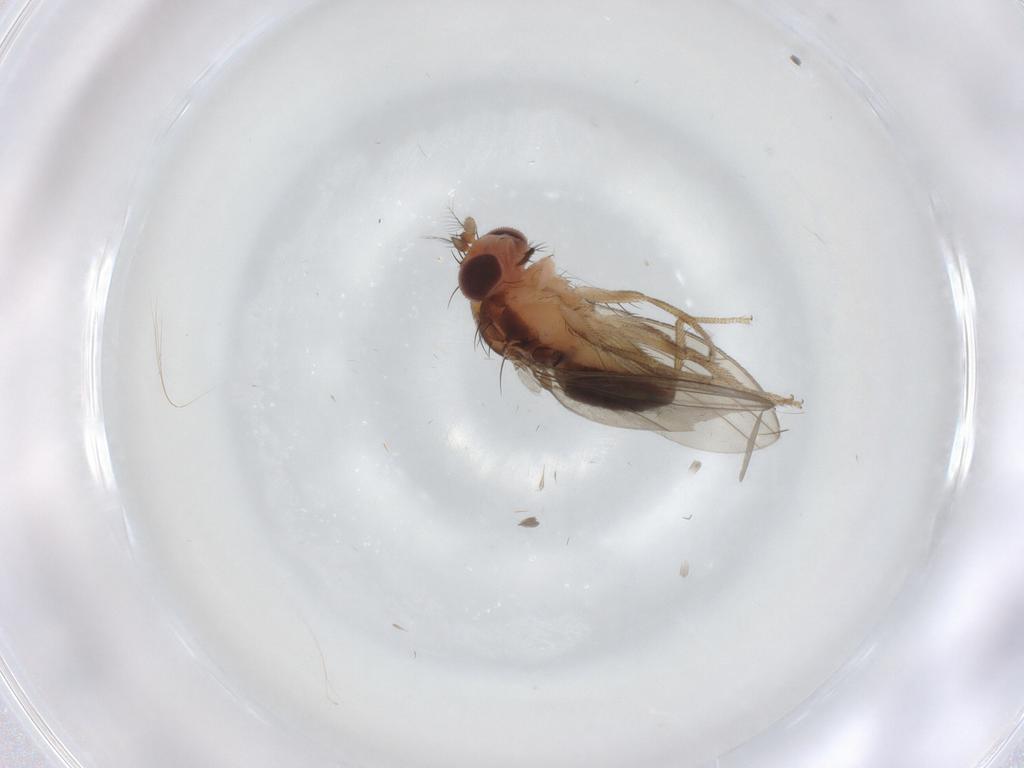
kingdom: Animalia
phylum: Arthropoda
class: Insecta
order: Diptera
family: Drosophilidae
